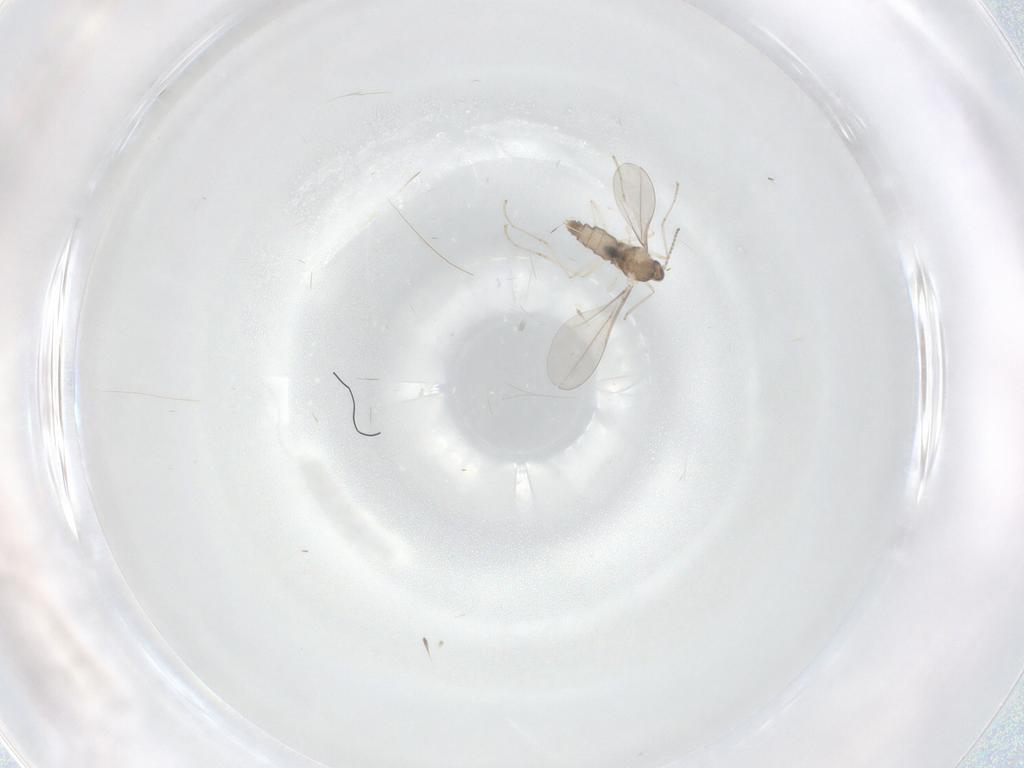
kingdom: Animalia
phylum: Arthropoda
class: Insecta
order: Diptera
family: Cecidomyiidae
